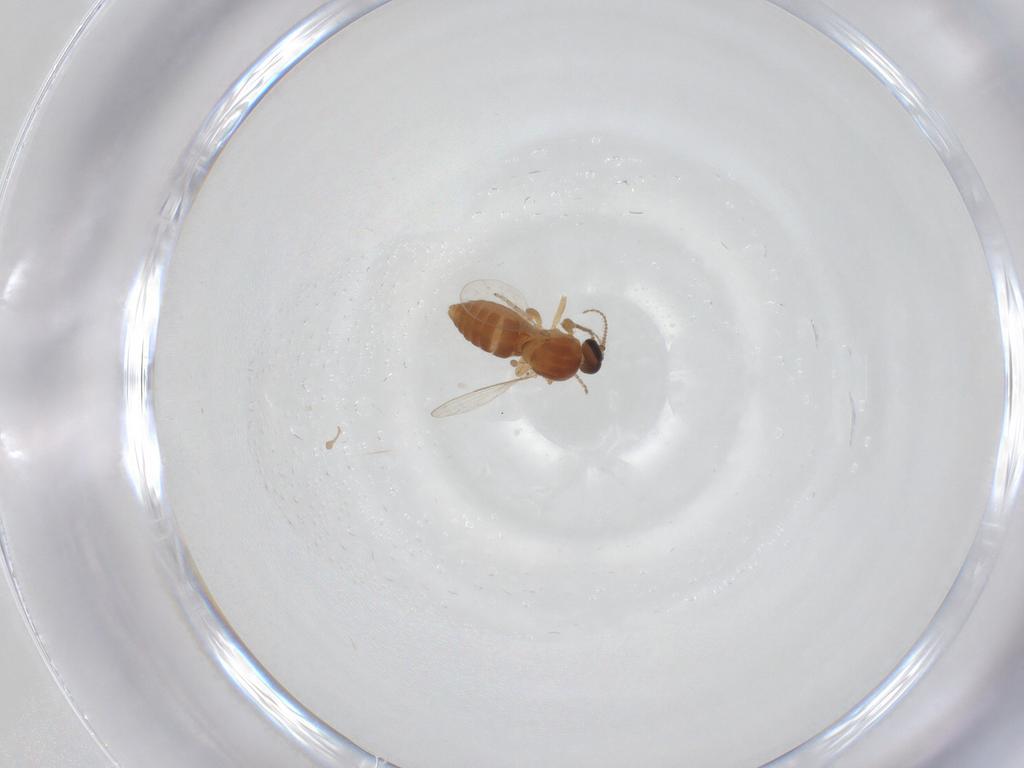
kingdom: Animalia
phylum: Arthropoda
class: Insecta
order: Diptera
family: Ceratopogonidae
